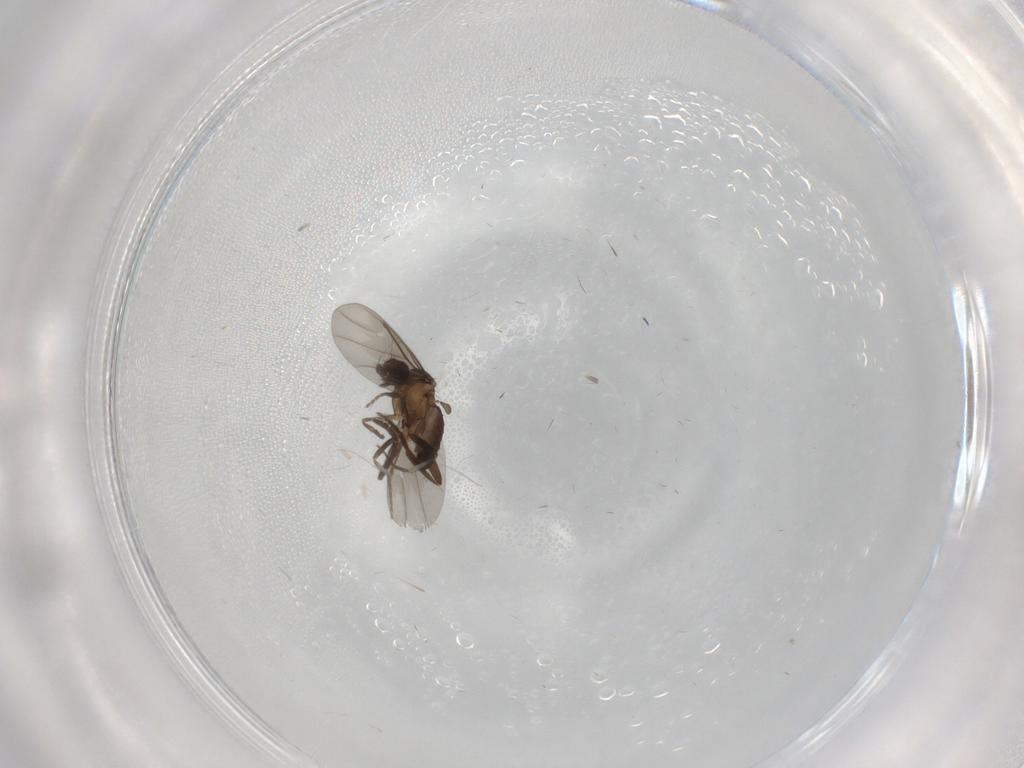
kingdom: Animalia
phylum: Arthropoda
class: Insecta
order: Diptera
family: Phoridae
